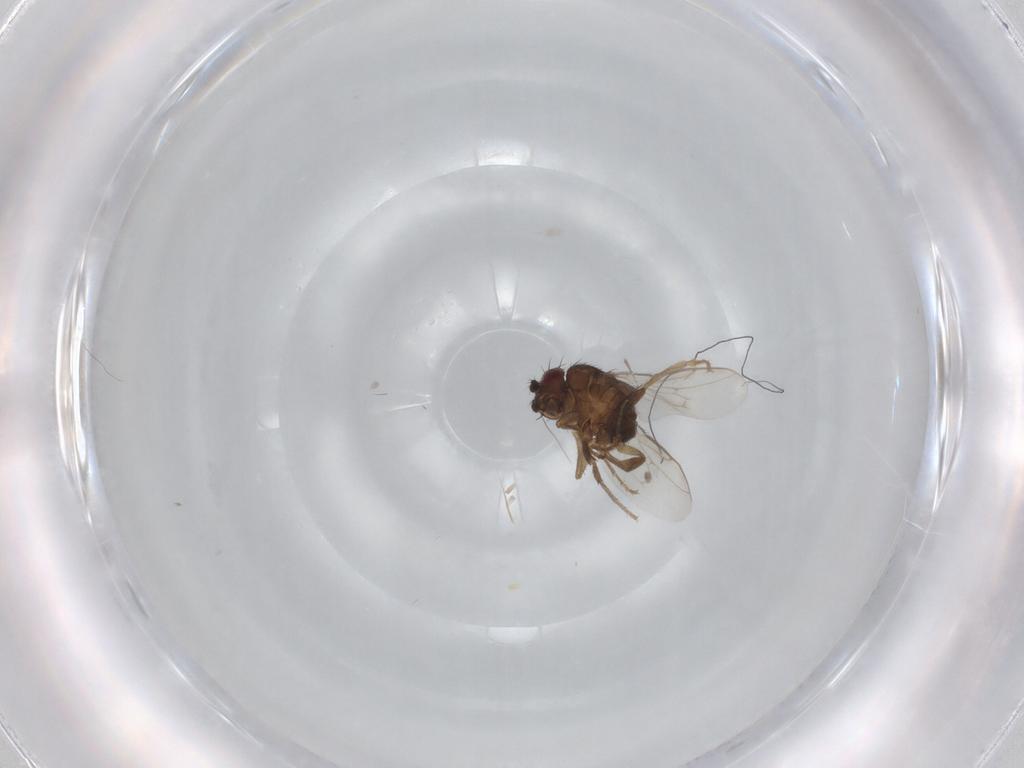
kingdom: Animalia
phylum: Arthropoda
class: Insecta
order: Diptera
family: Sphaeroceridae
